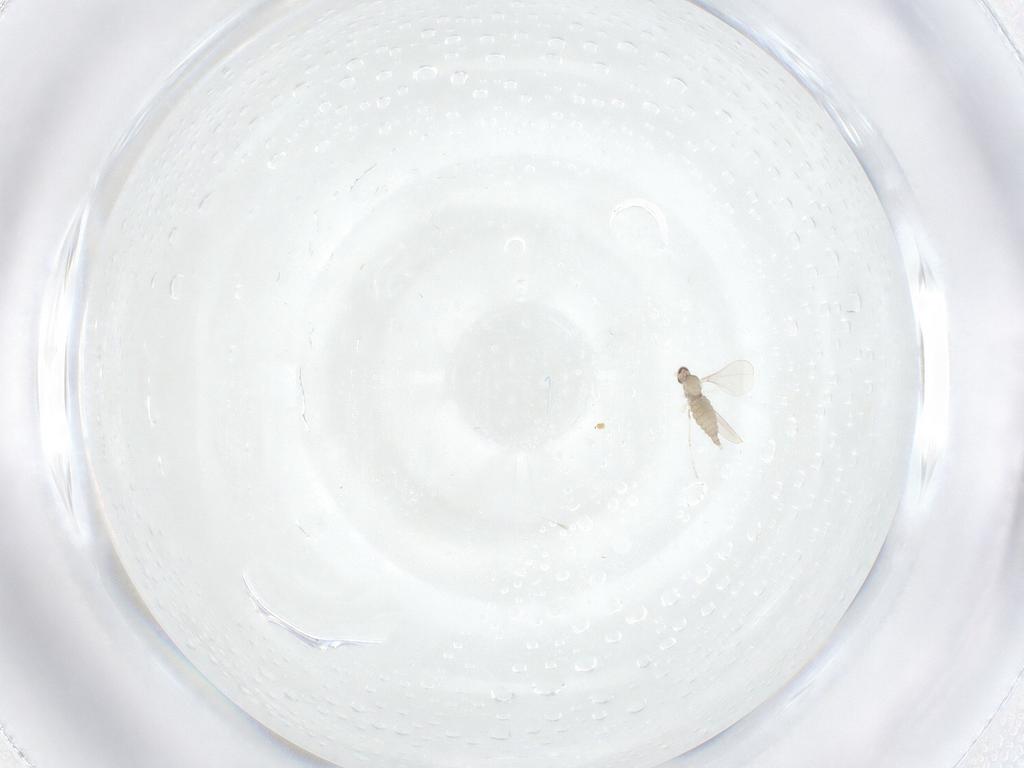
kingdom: Animalia
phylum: Arthropoda
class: Insecta
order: Diptera
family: Cecidomyiidae
